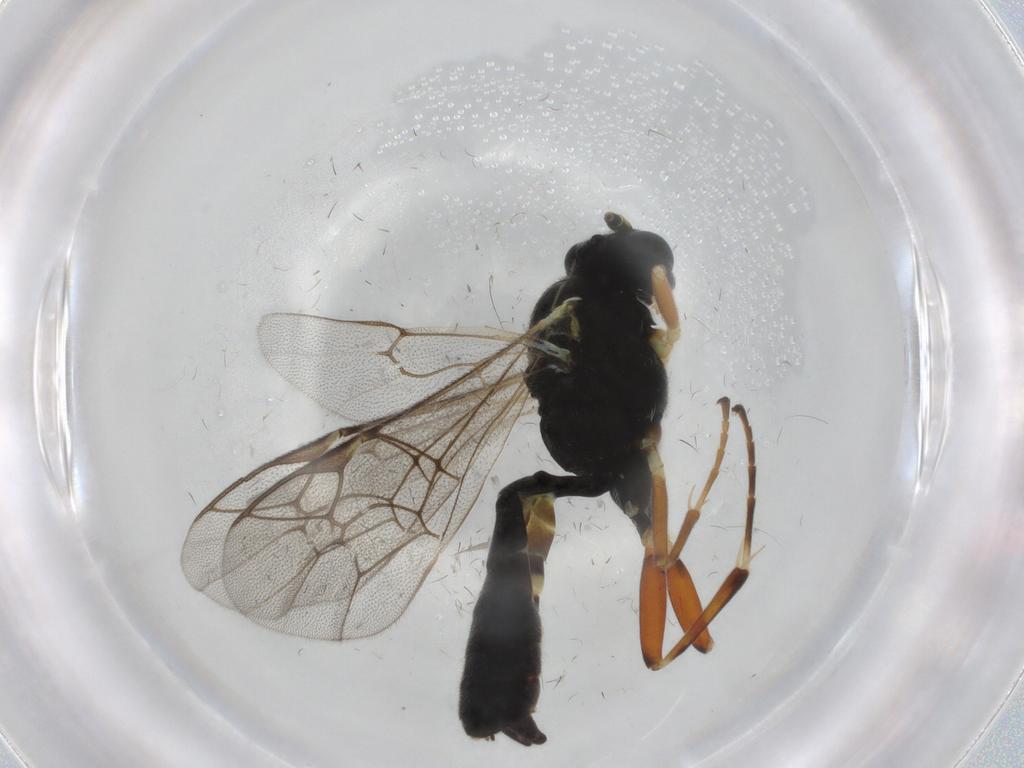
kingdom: Animalia
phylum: Arthropoda
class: Insecta
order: Hymenoptera
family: Ichneumonidae
